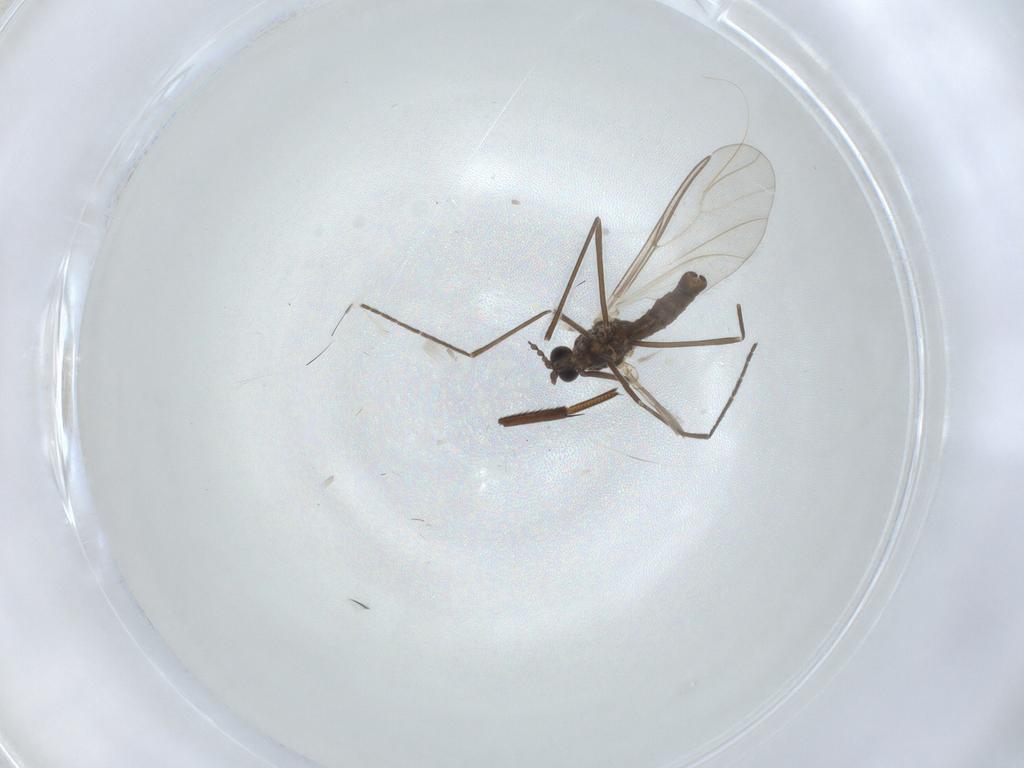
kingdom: Animalia
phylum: Arthropoda
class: Insecta
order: Diptera
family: Cecidomyiidae
